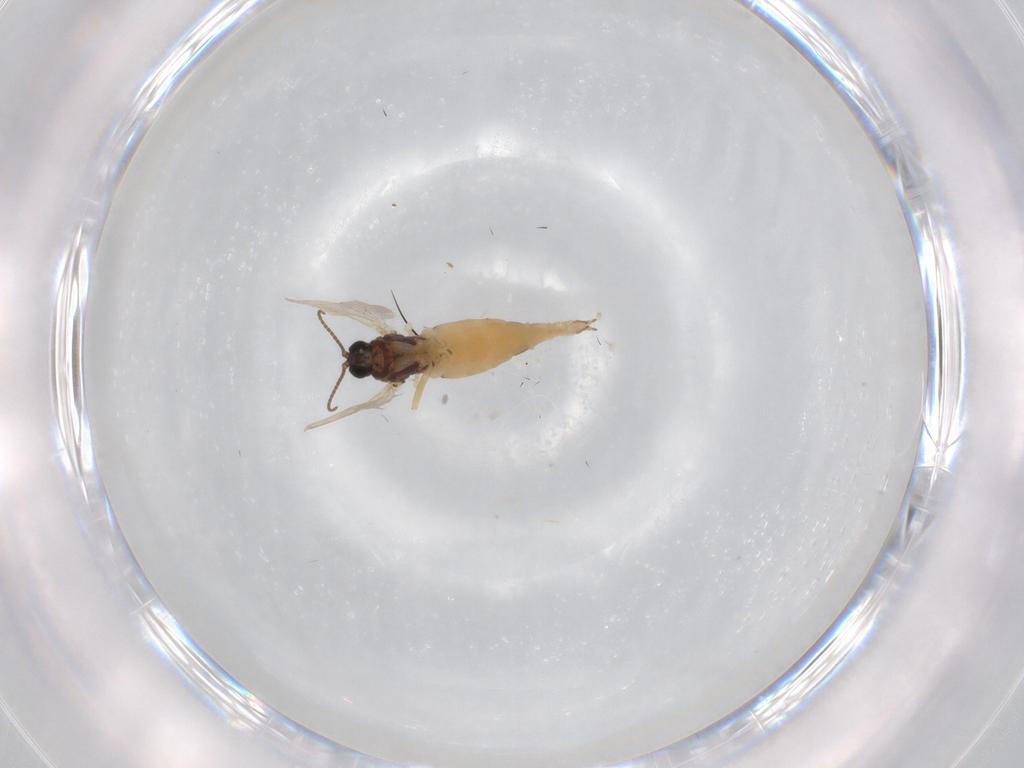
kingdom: Animalia
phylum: Arthropoda
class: Insecta
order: Diptera
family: Sciaridae
